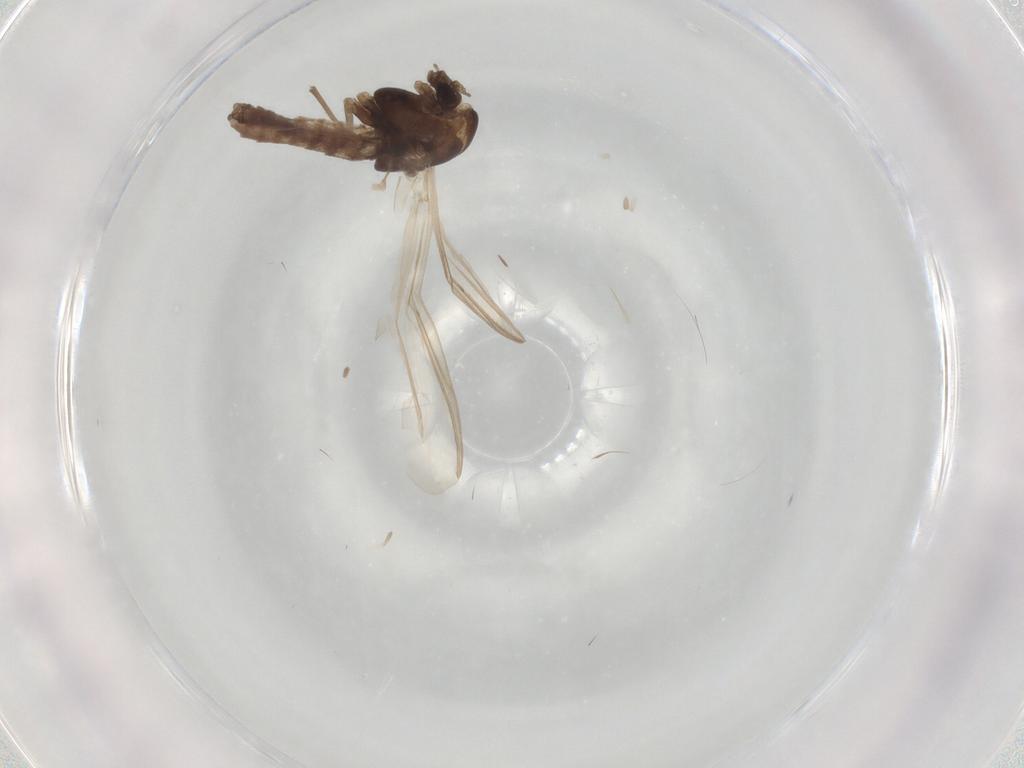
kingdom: Animalia
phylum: Arthropoda
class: Insecta
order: Diptera
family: Chironomidae
